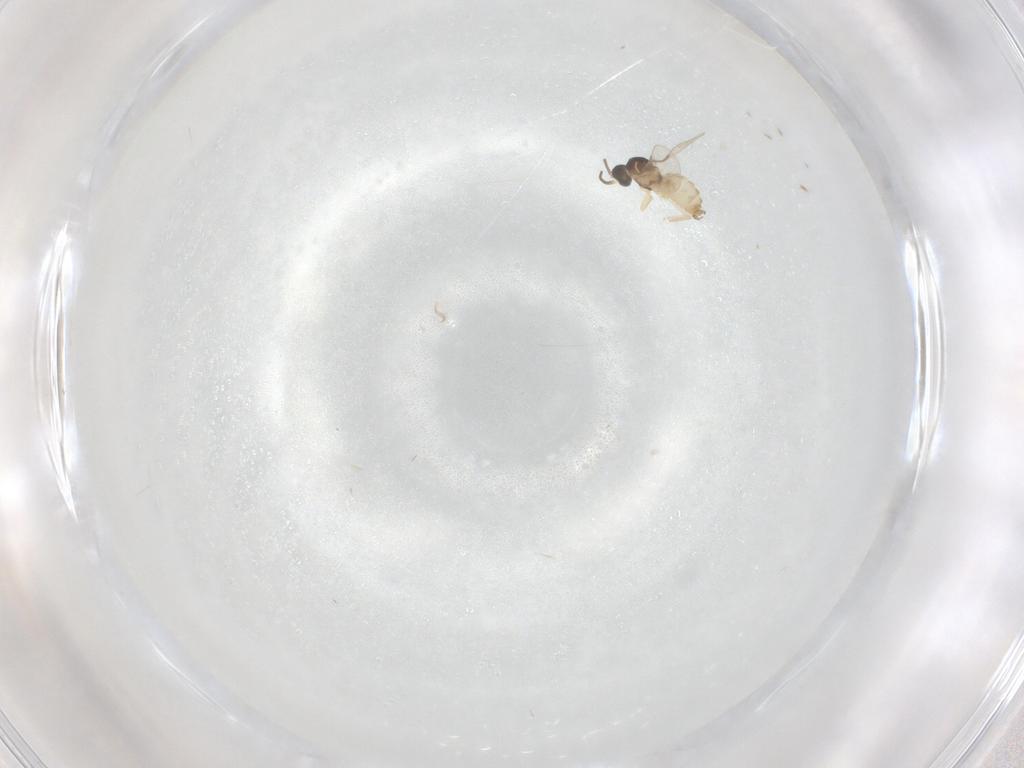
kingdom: Animalia
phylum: Arthropoda
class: Insecta
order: Diptera
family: Cecidomyiidae
